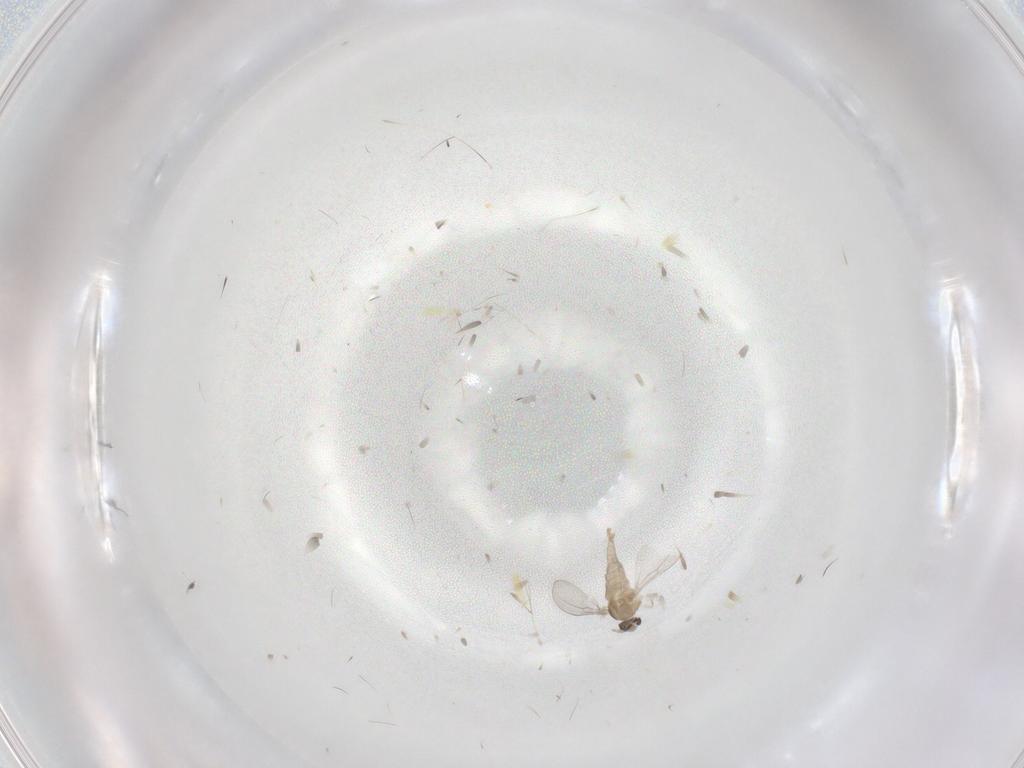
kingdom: Animalia
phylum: Arthropoda
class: Insecta
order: Diptera
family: Cecidomyiidae
